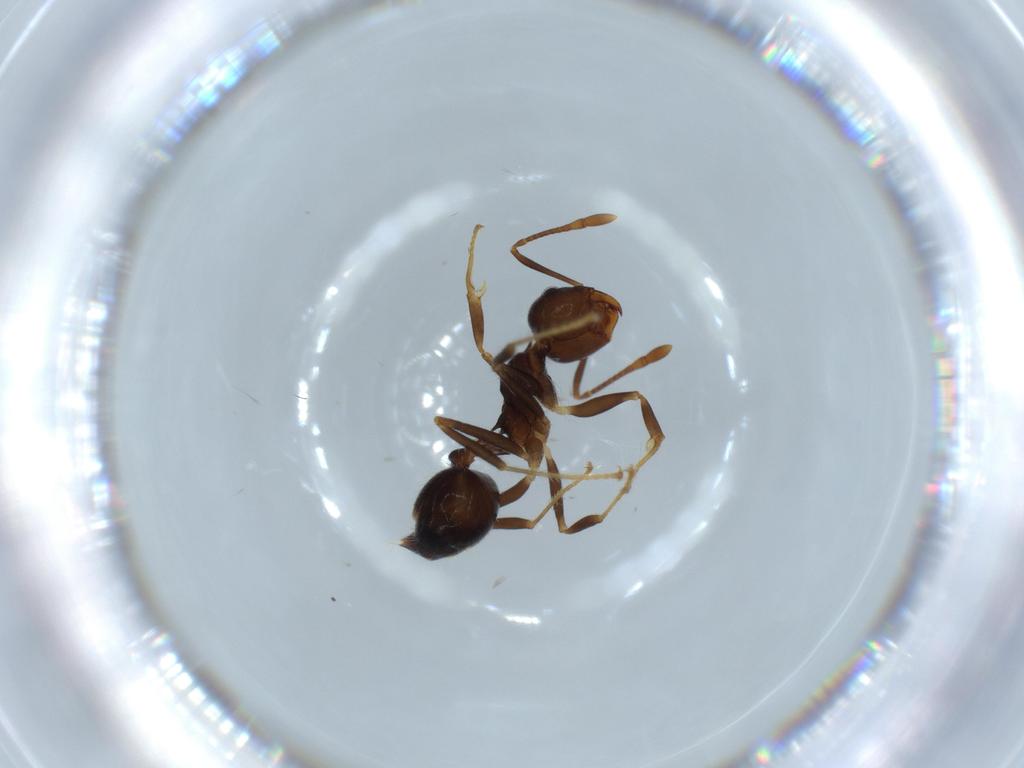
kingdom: Animalia
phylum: Arthropoda
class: Insecta
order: Hymenoptera
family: Formicidae
